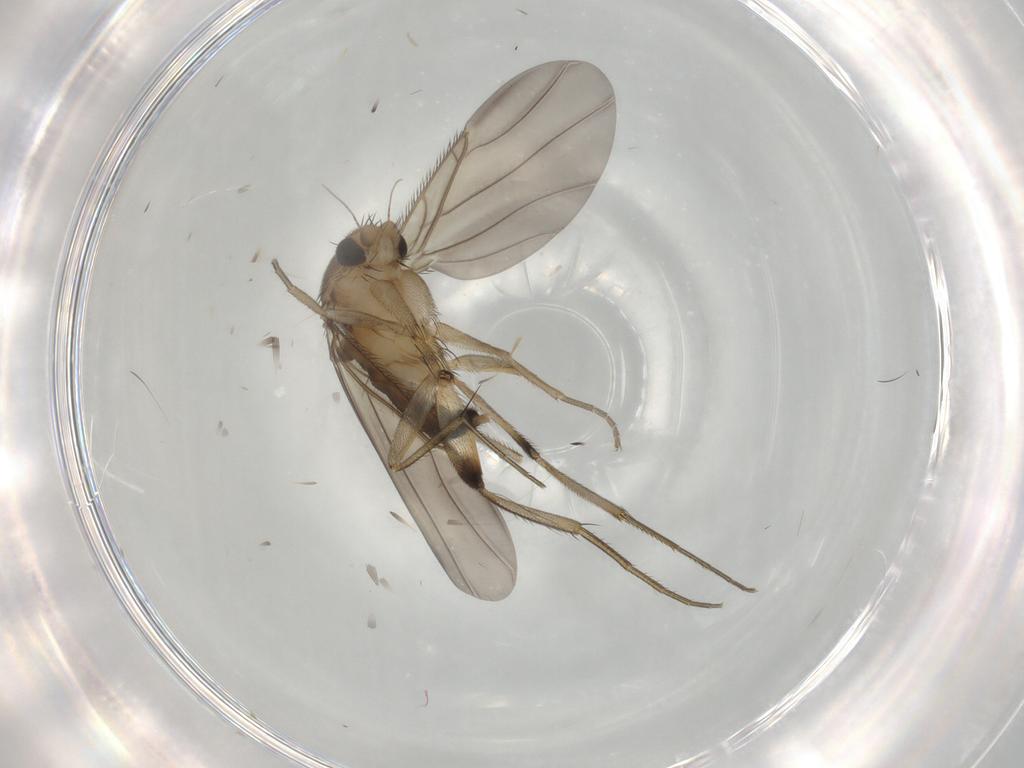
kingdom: Animalia
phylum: Arthropoda
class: Insecta
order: Diptera
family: Phoridae
